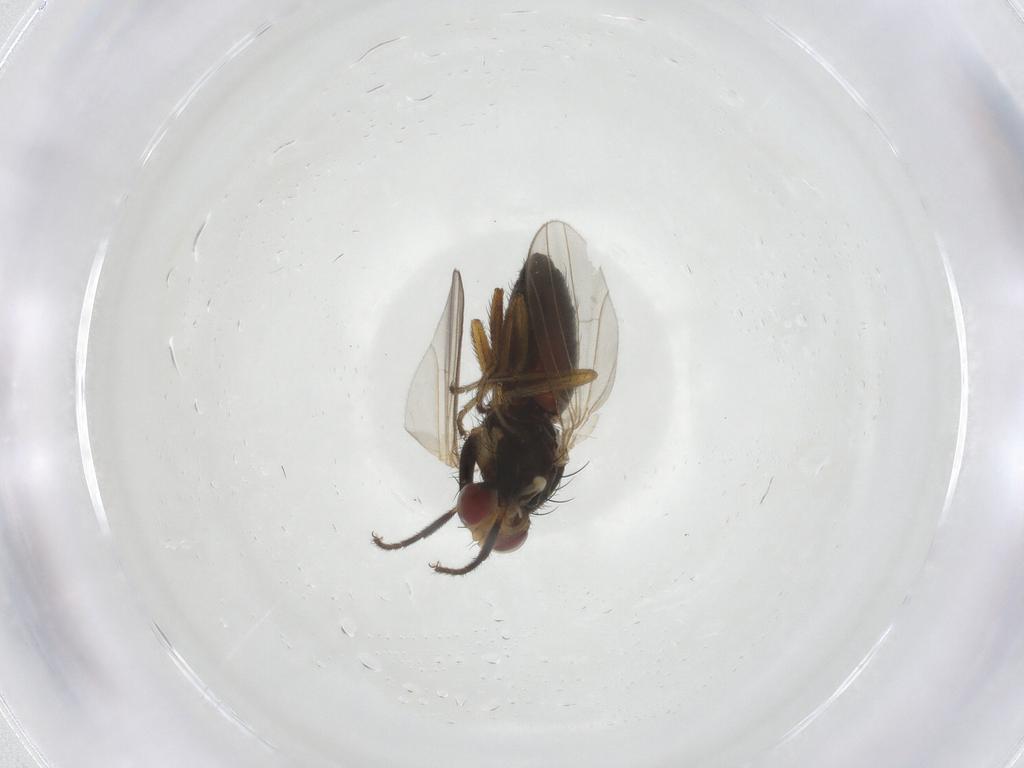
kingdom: Animalia
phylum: Arthropoda
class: Insecta
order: Diptera
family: Heleomyzidae
